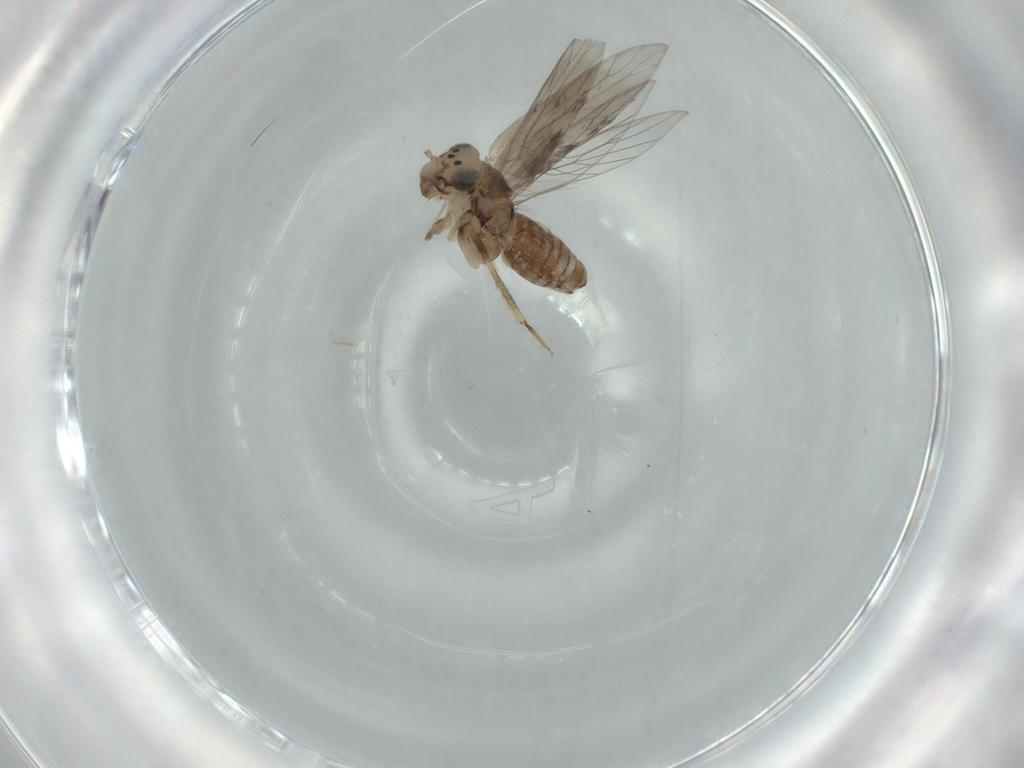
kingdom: Animalia
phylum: Arthropoda
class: Insecta
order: Psocodea
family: Lepidopsocidae
